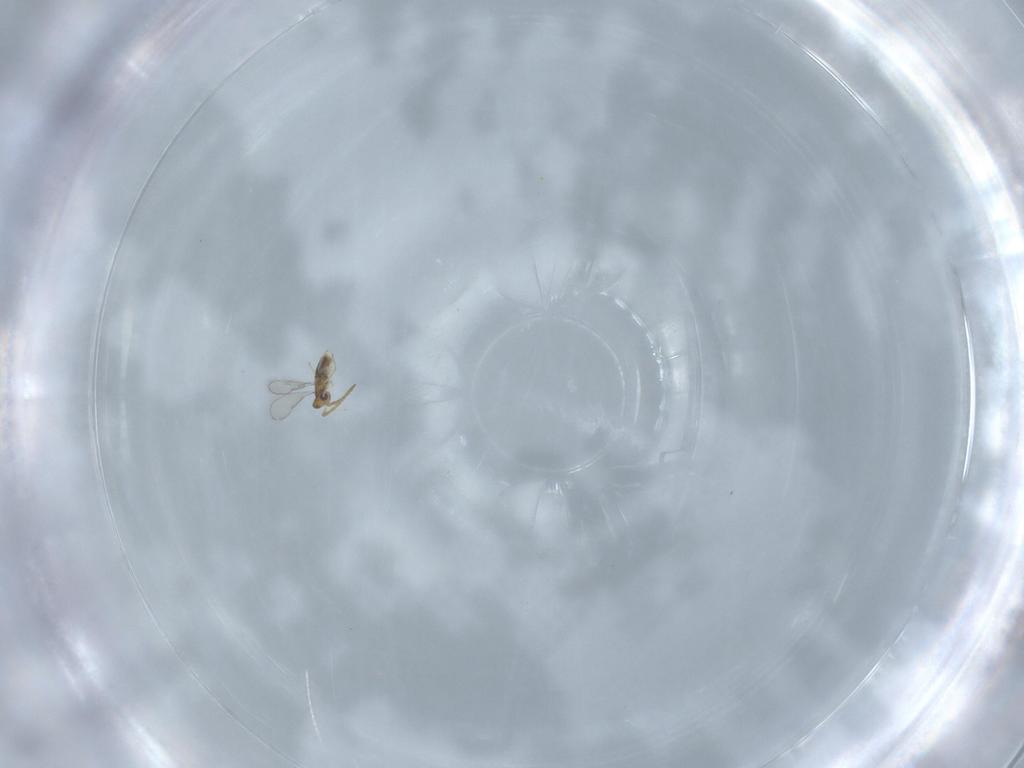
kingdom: Animalia
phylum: Arthropoda
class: Insecta
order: Hymenoptera
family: Aphelinidae
